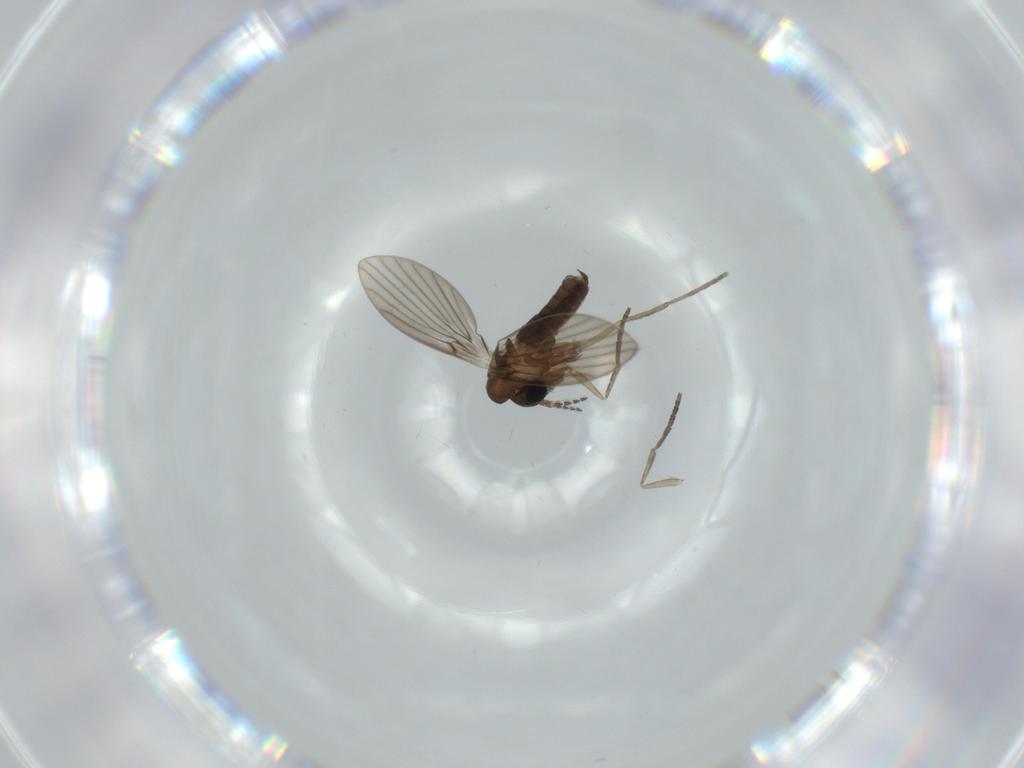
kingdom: Animalia
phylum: Arthropoda
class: Insecta
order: Diptera
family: Psychodidae
